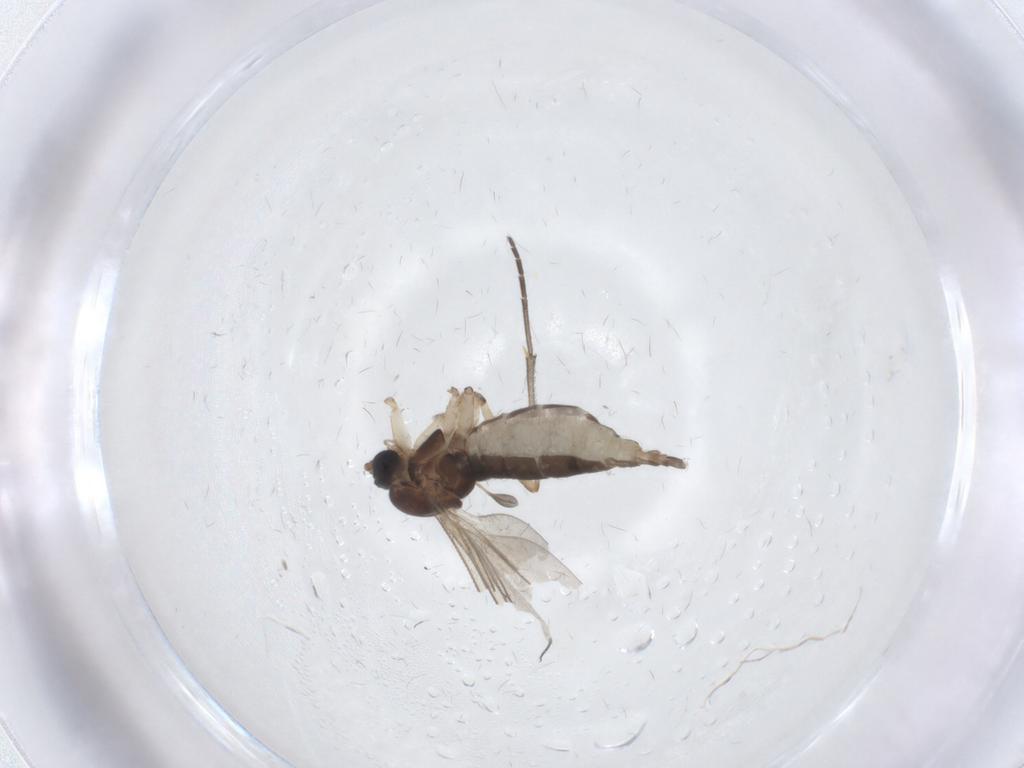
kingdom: Animalia
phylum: Arthropoda
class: Insecta
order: Diptera
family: Sciaridae
